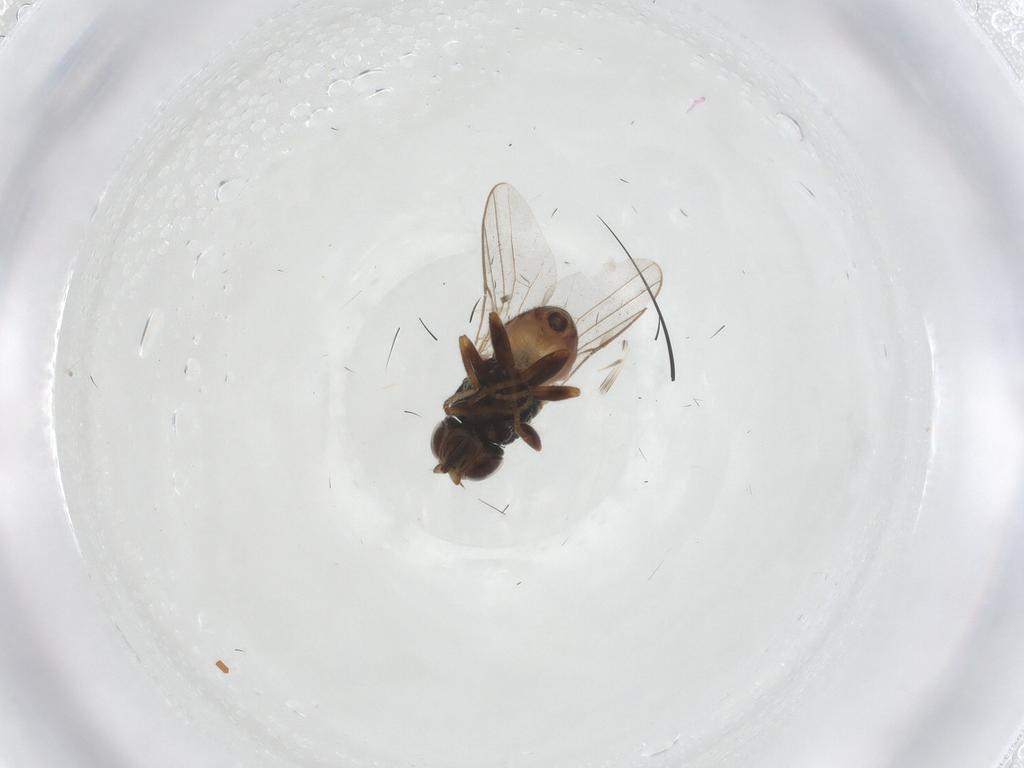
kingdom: Animalia
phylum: Arthropoda
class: Insecta
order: Diptera
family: Chloropidae
